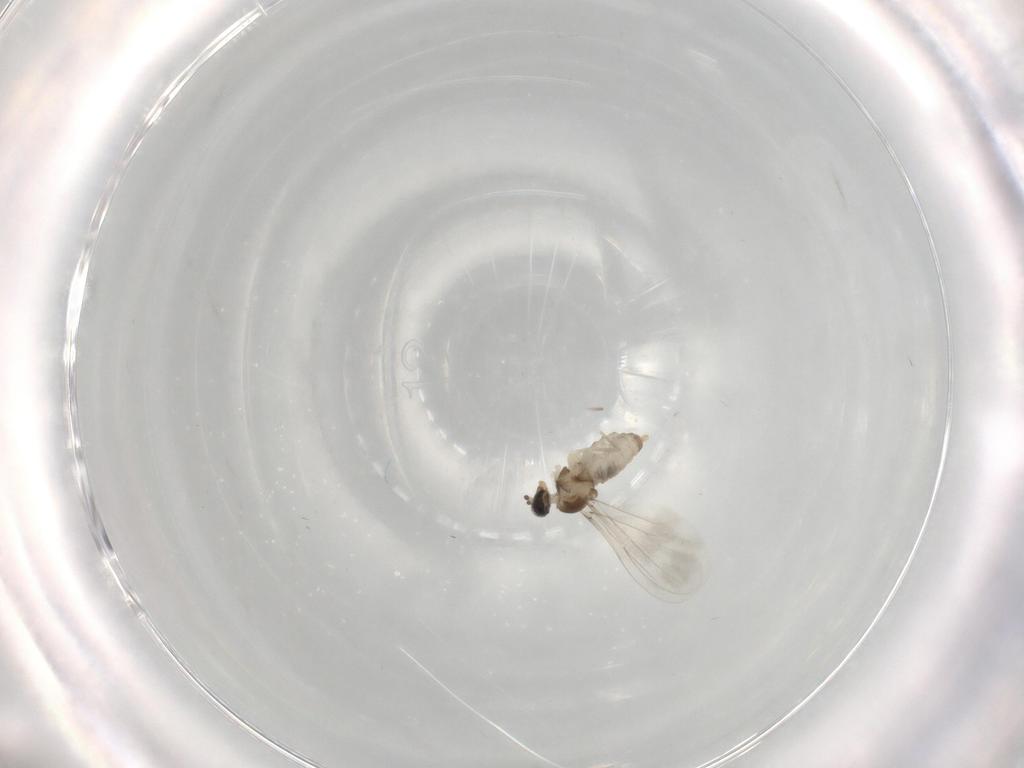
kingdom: Animalia
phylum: Arthropoda
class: Insecta
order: Diptera
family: Cecidomyiidae
